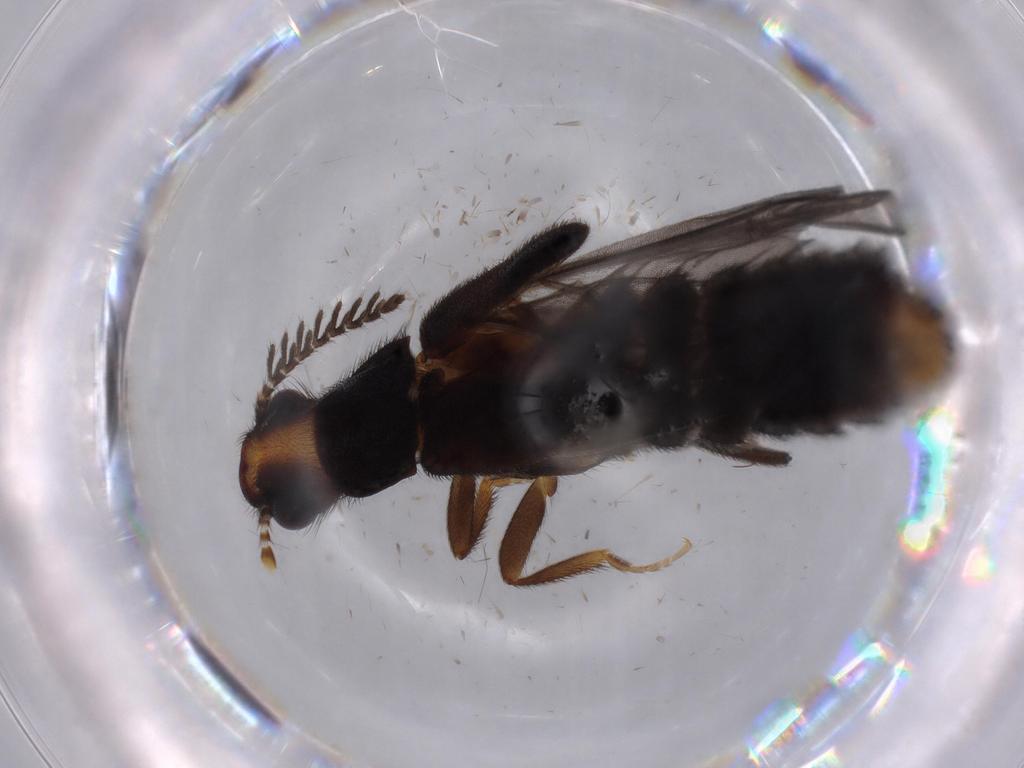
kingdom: Animalia
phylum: Arthropoda
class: Insecta
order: Coleoptera
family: Phengodidae
